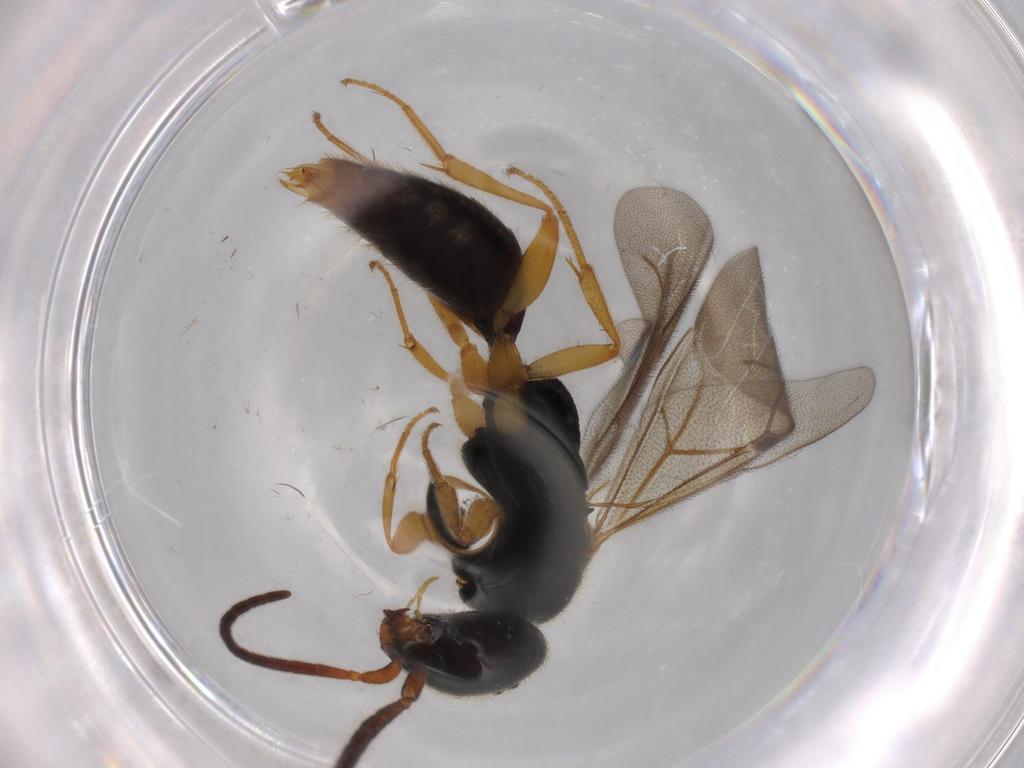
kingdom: Animalia
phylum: Arthropoda
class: Insecta
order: Hymenoptera
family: Bethylidae
